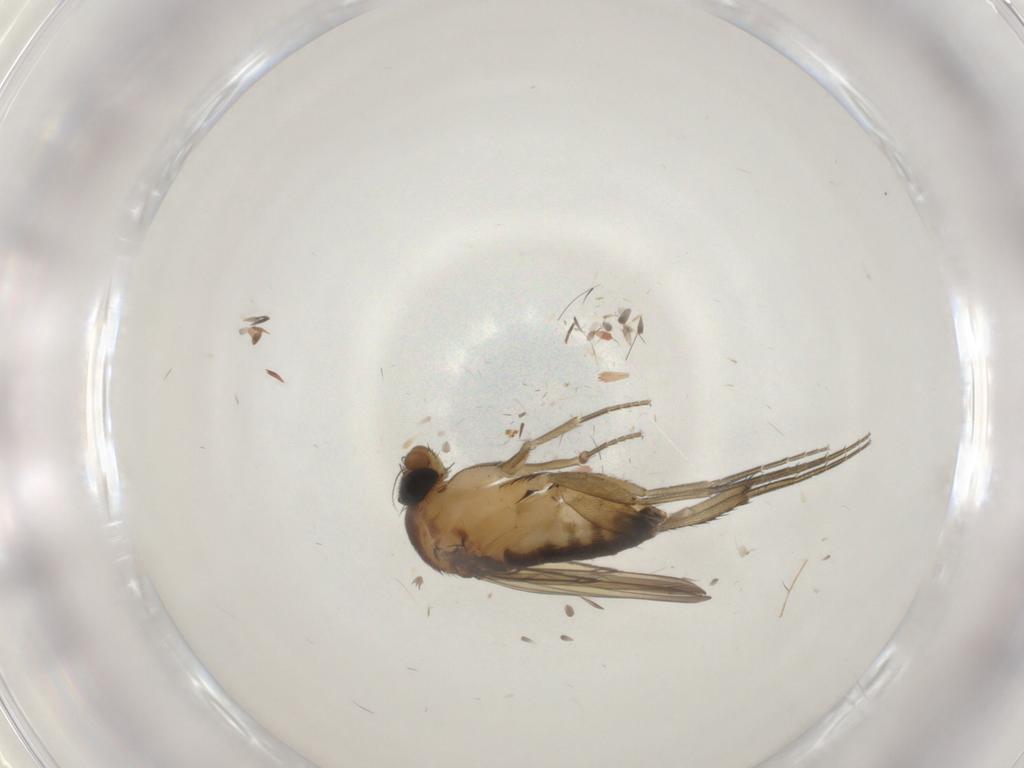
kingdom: Animalia
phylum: Arthropoda
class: Insecta
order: Diptera
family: Phoridae
